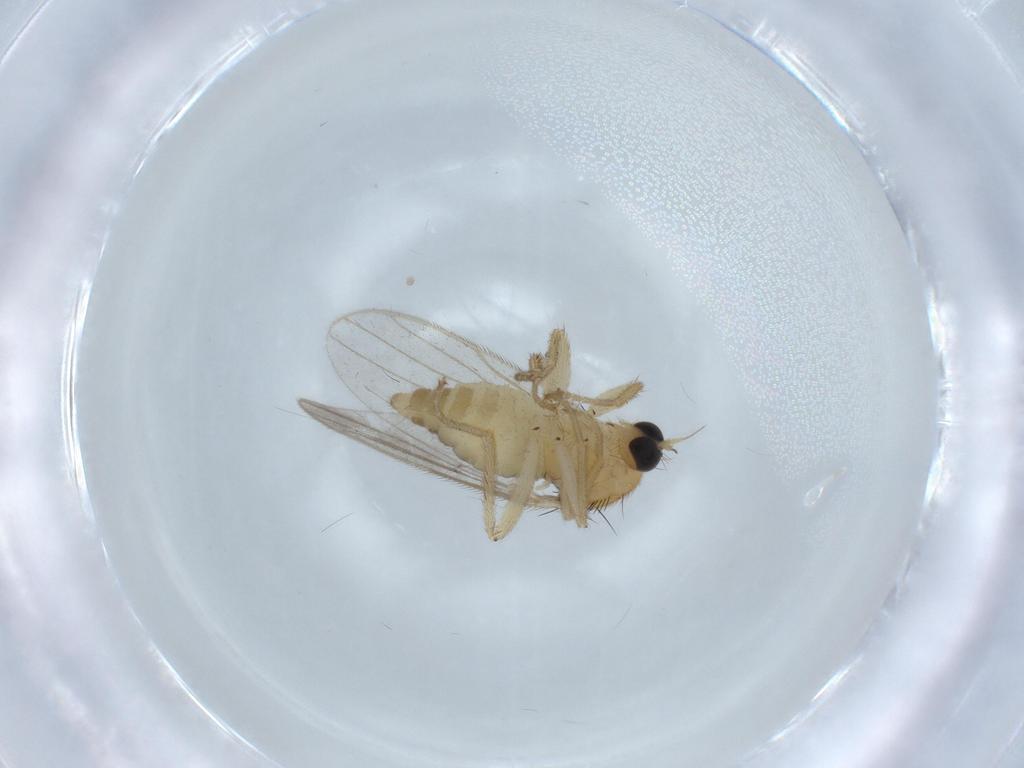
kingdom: Animalia
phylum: Arthropoda
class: Insecta
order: Diptera
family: Hybotidae
